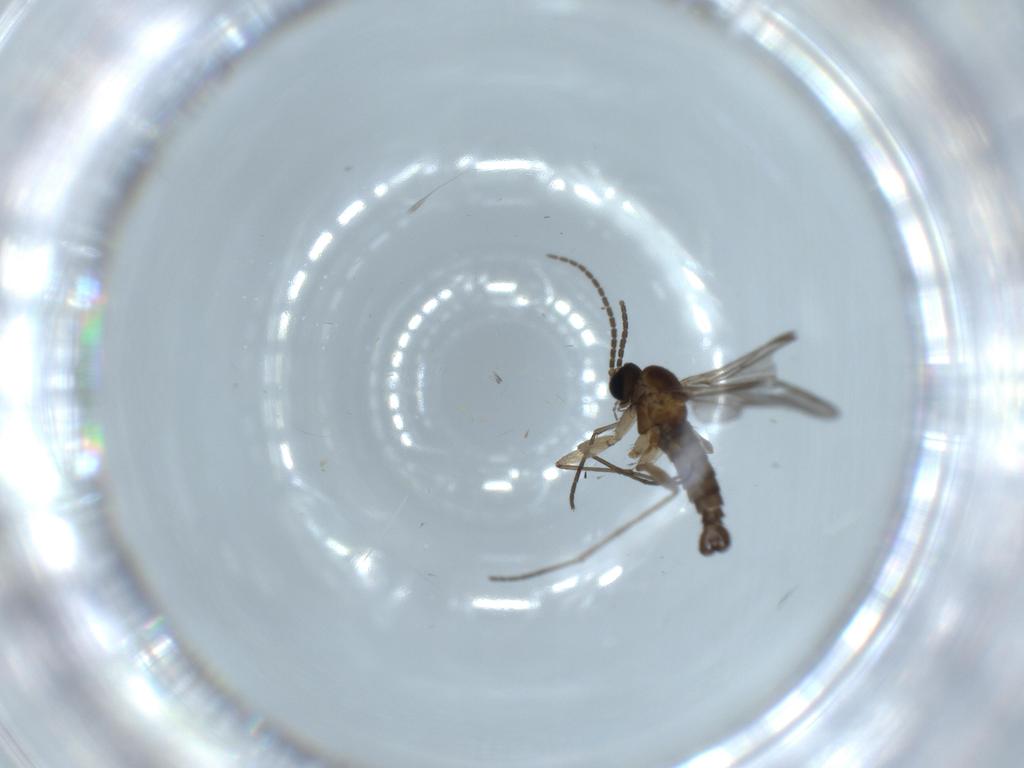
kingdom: Animalia
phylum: Arthropoda
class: Insecta
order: Diptera
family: Sciaridae
